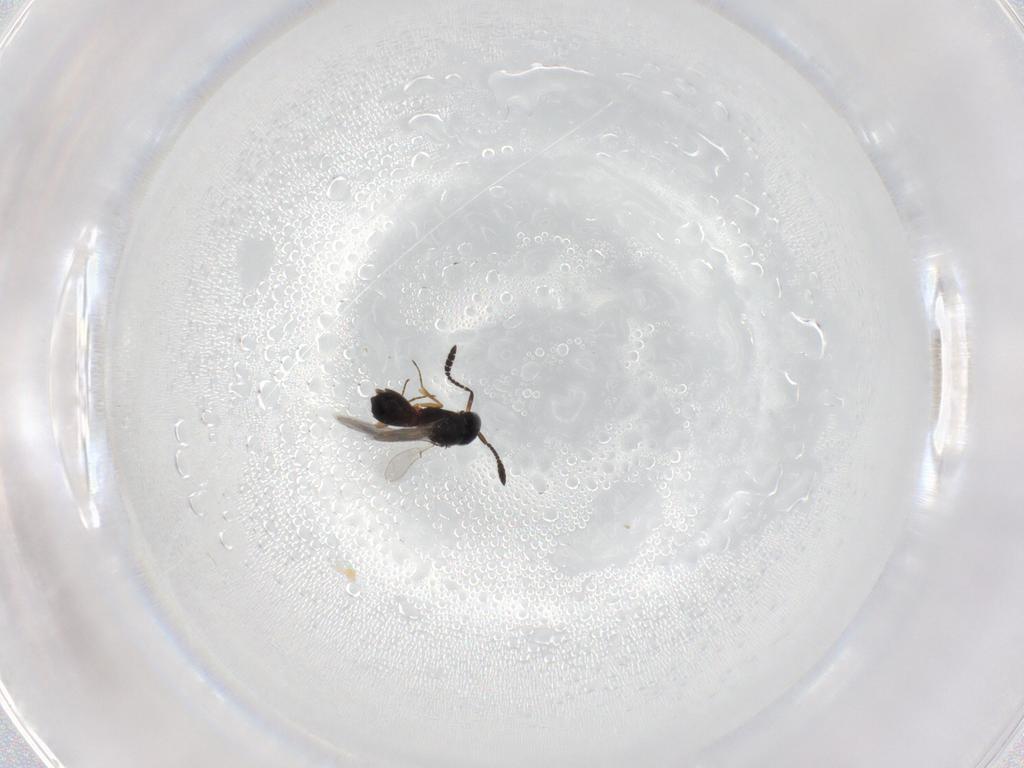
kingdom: Animalia
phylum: Arthropoda
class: Insecta
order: Hymenoptera
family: Scelionidae
